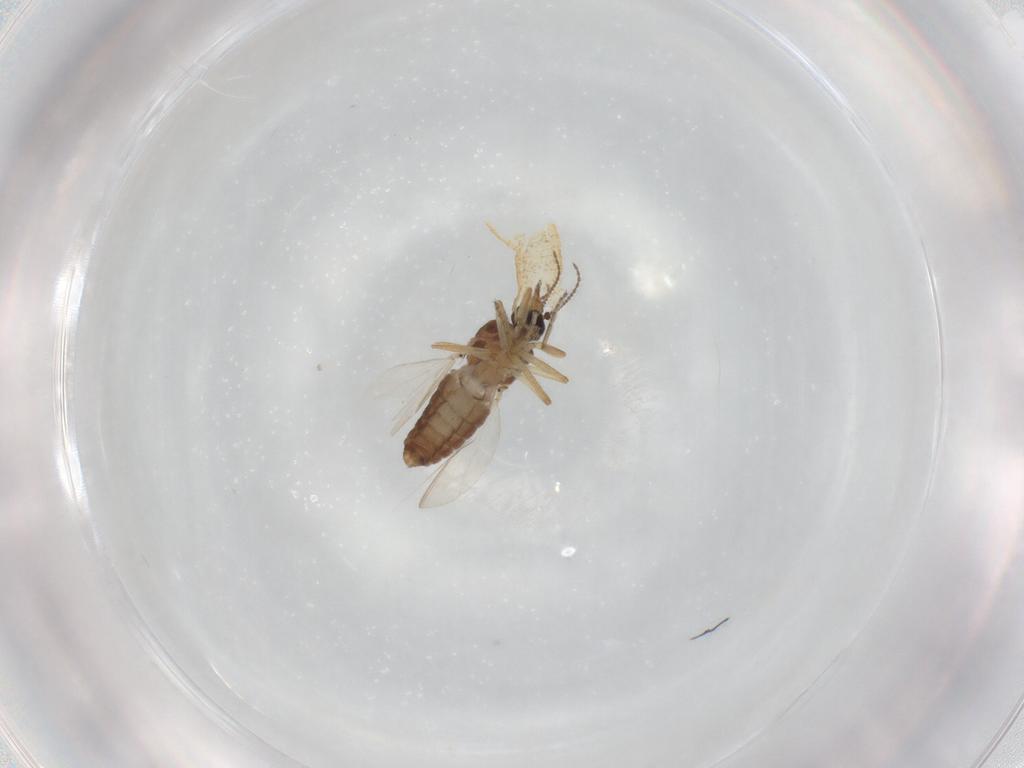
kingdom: Animalia
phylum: Arthropoda
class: Insecta
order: Diptera
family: Ceratopogonidae
